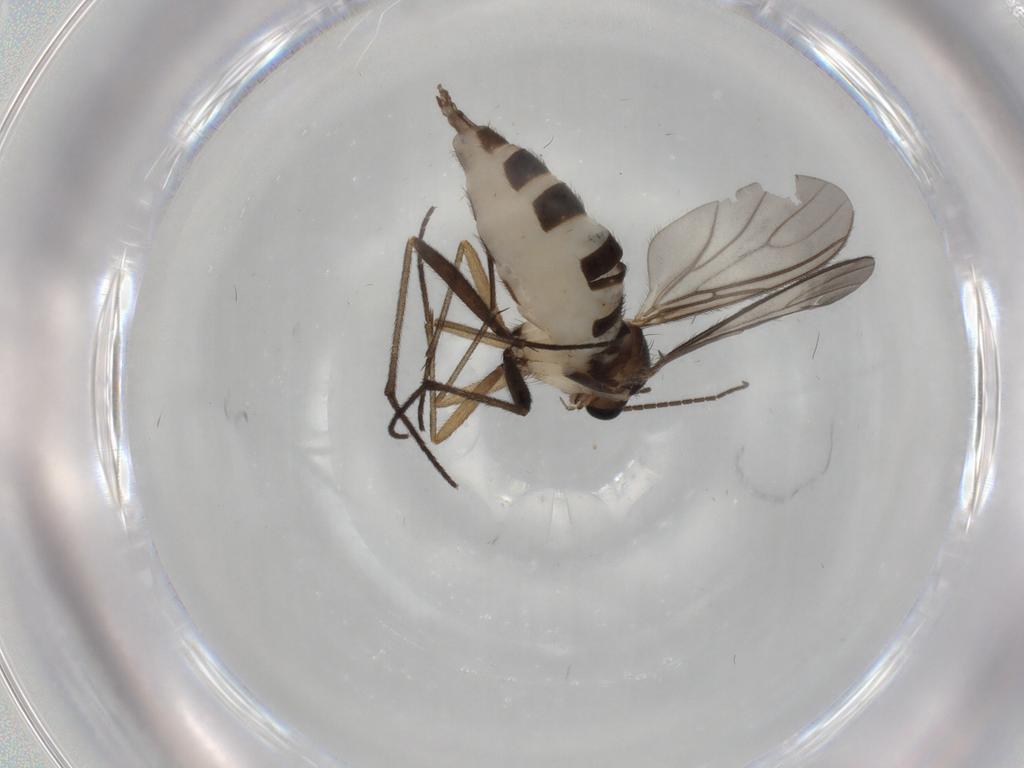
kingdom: Animalia
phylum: Arthropoda
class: Insecta
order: Diptera
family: Sciaridae
